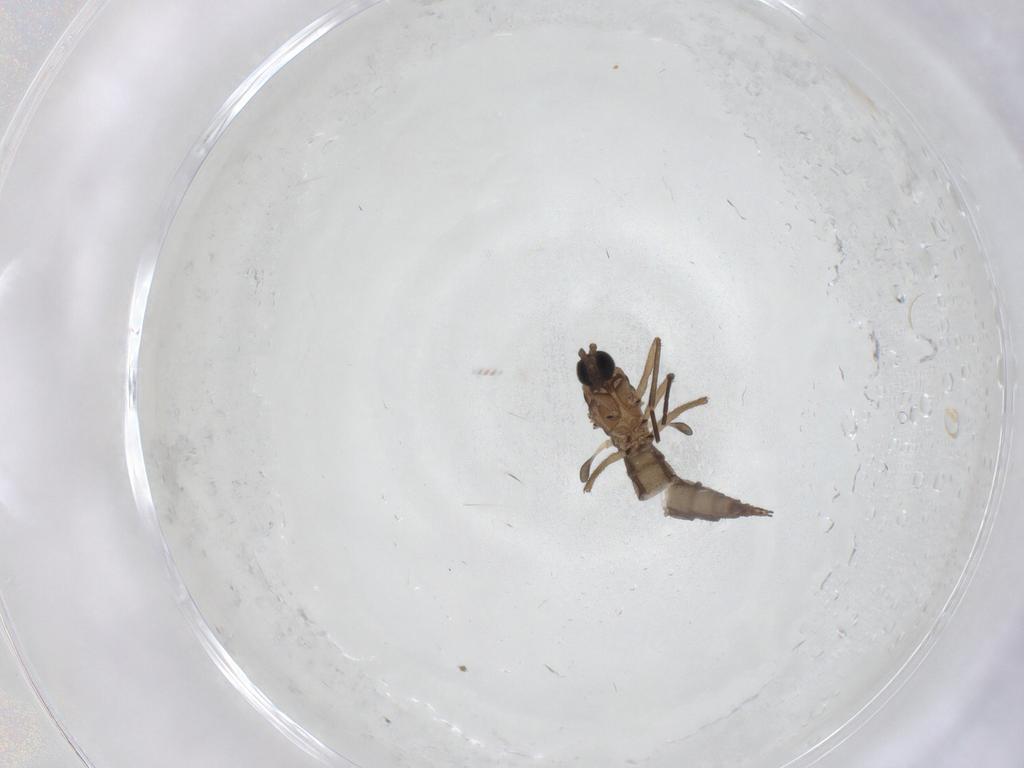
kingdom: Animalia
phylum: Arthropoda
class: Insecta
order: Diptera
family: Sciaridae
